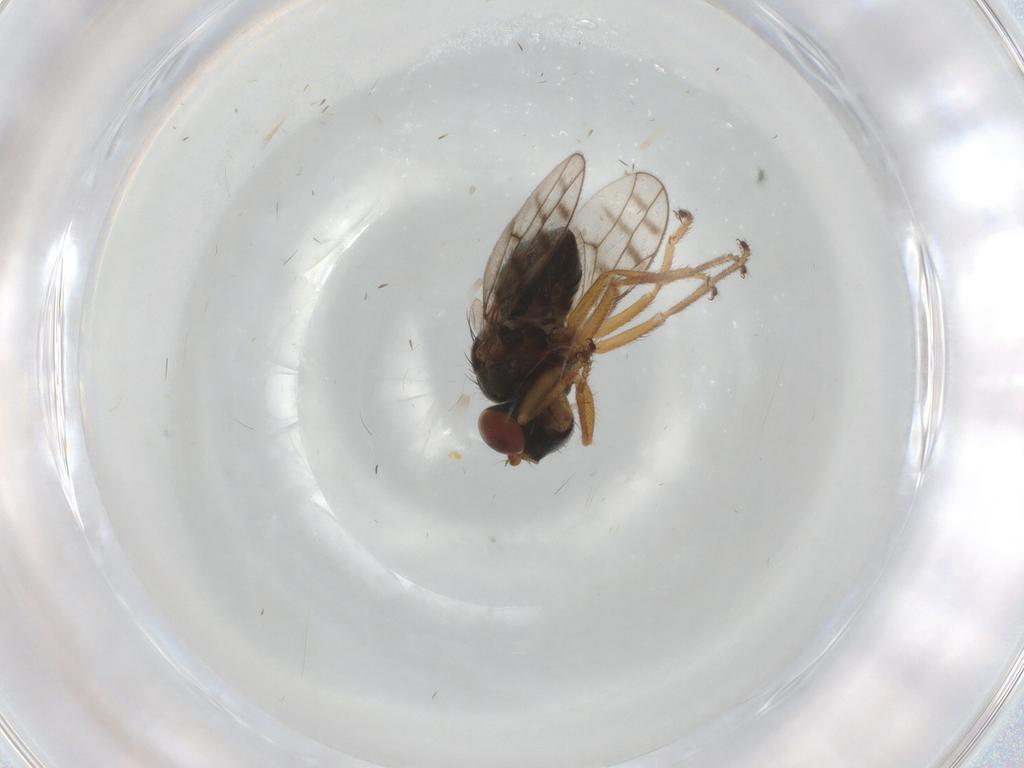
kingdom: Animalia
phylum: Arthropoda
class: Insecta
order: Diptera
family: Ephydridae
